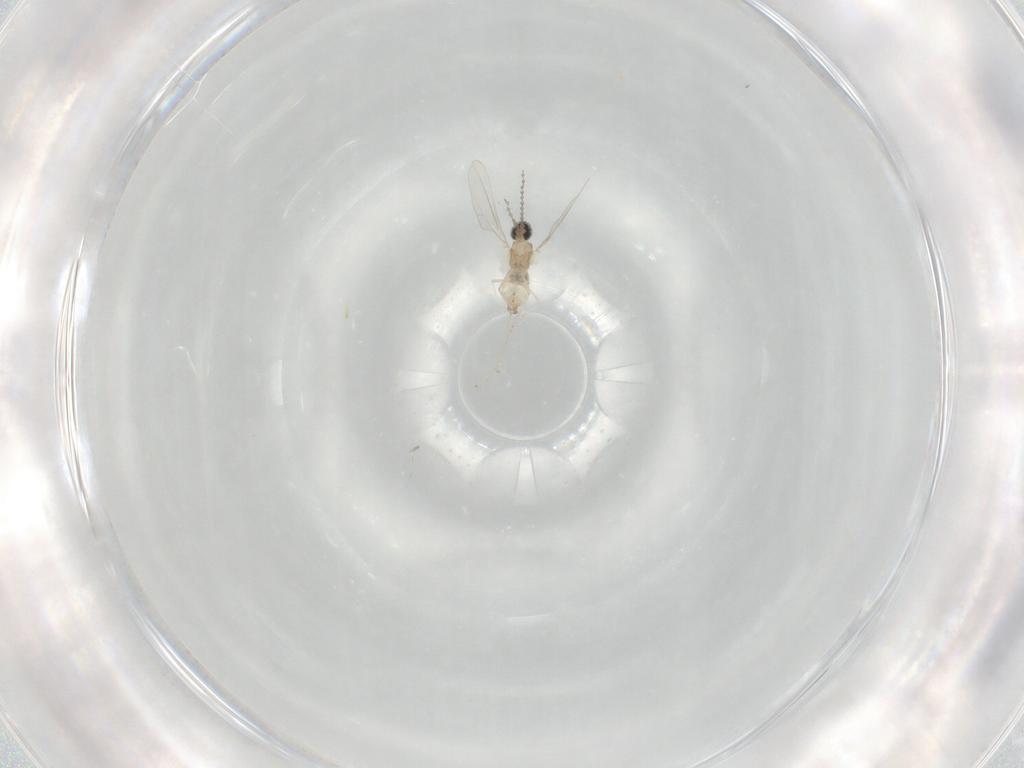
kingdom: Animalia
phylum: Arthropoda
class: Insecta
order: Diptera
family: Cecidomyiidae
